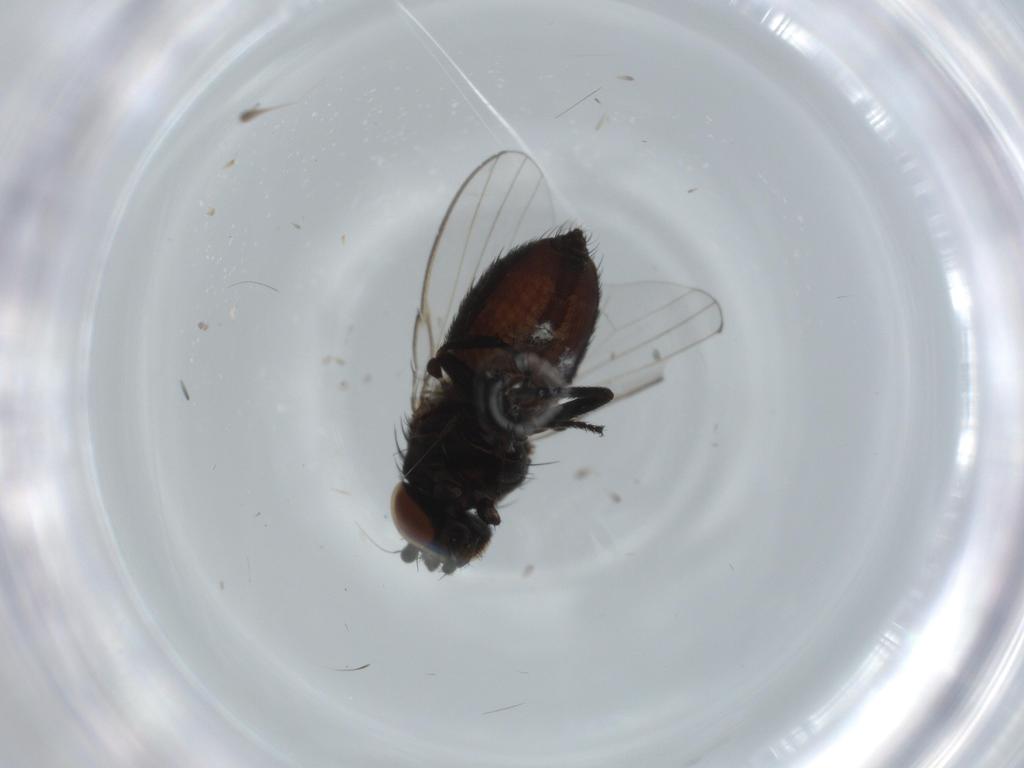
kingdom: Animalia
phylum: Arthropoda
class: Insecta
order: Diptera
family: Milichiidae
